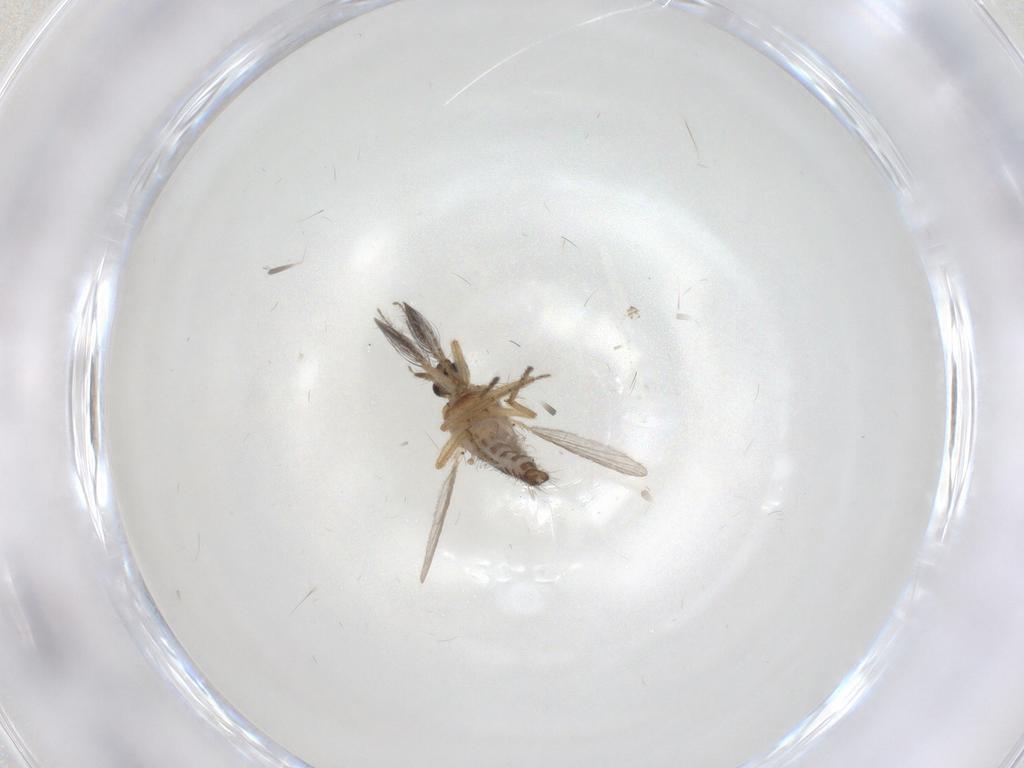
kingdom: Animalia
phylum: Arthropoda
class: Insecta
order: Diptera
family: Ceratopogonidae
